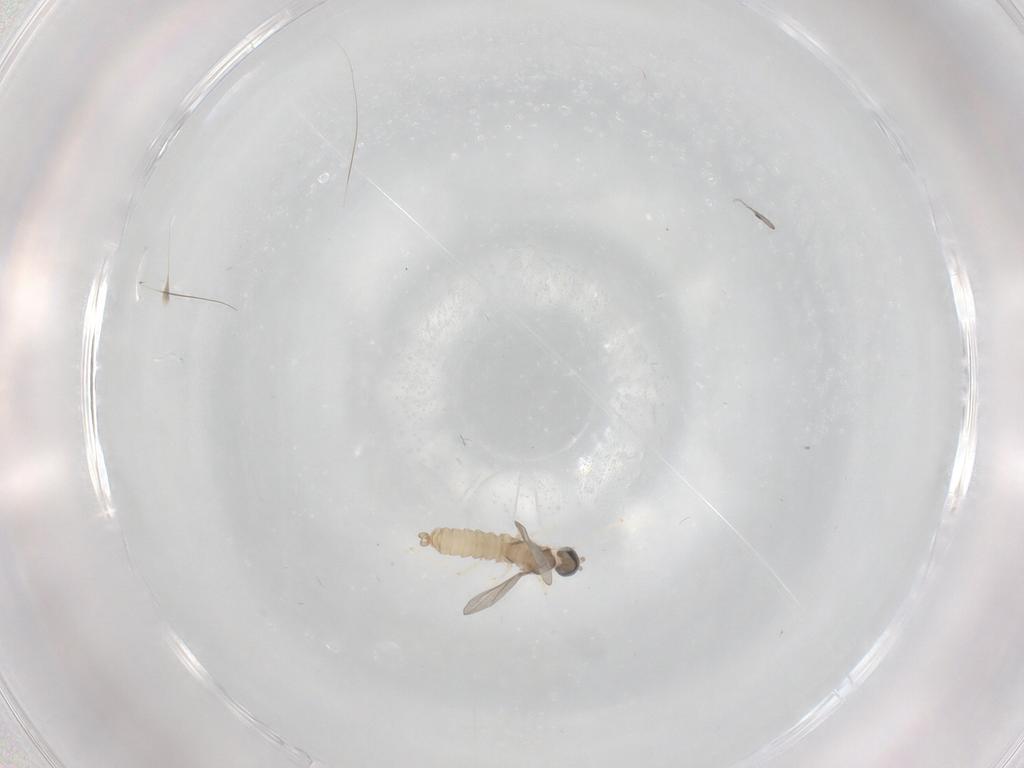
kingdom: Animalia
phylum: Arthropoda
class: Insecta
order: Diptera
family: Cecidomyiidae
